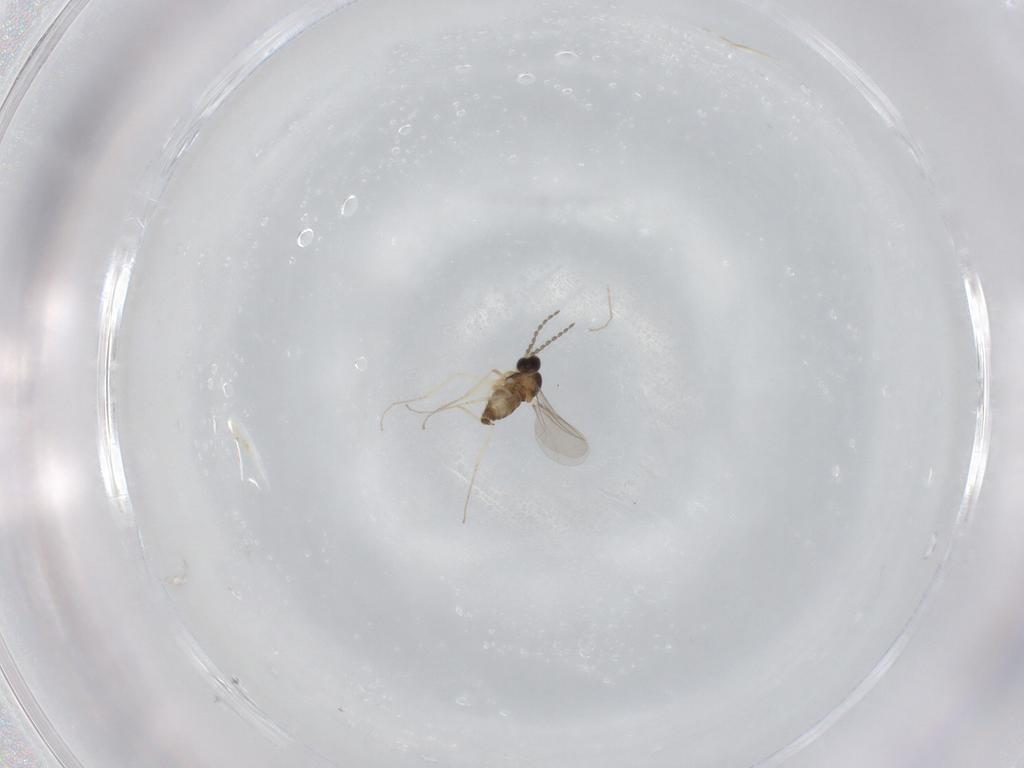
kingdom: Animalia
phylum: Arthropoda
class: Insecta
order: Diptera
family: Cecidomyiidae
